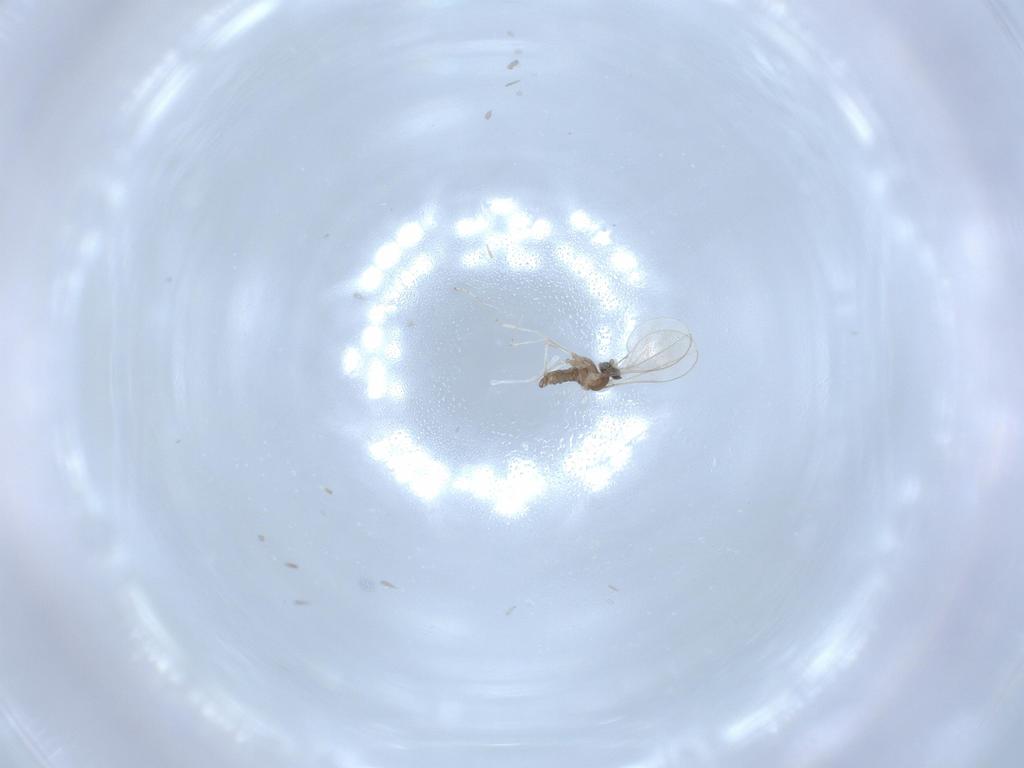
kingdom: Animalia
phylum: Arthropoda
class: Insecta
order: Diptera
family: Cecidomyiidae
